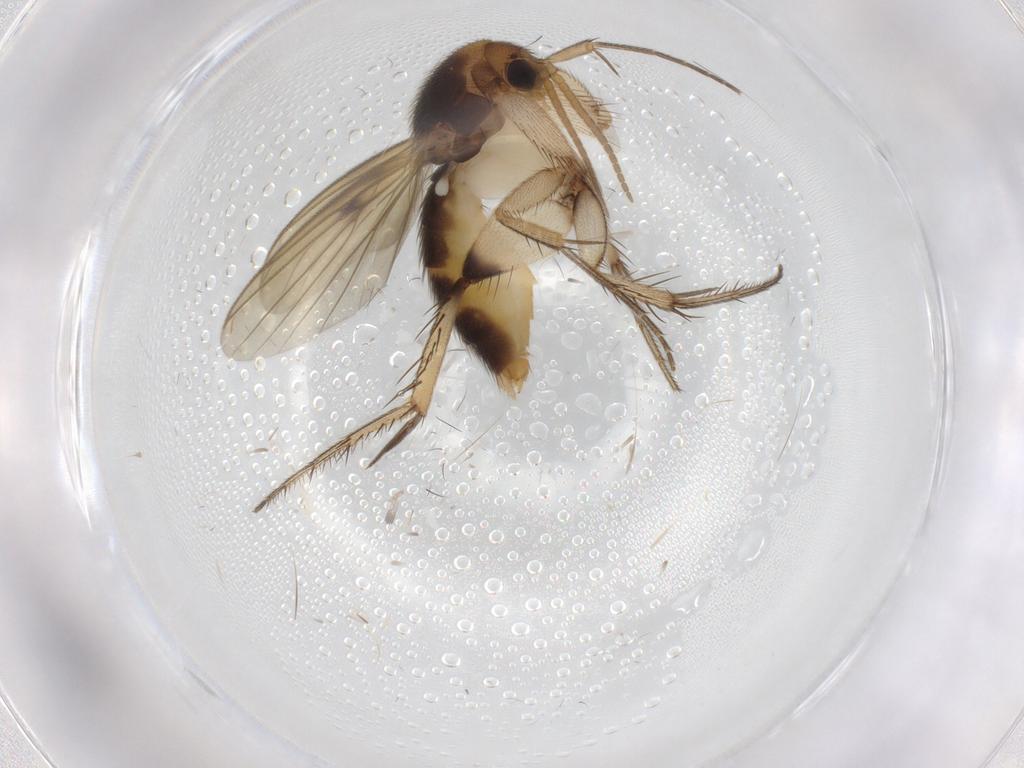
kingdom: Animalia
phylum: Arthropoda
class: Insecta
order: Diptera
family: Mycetophilidae
